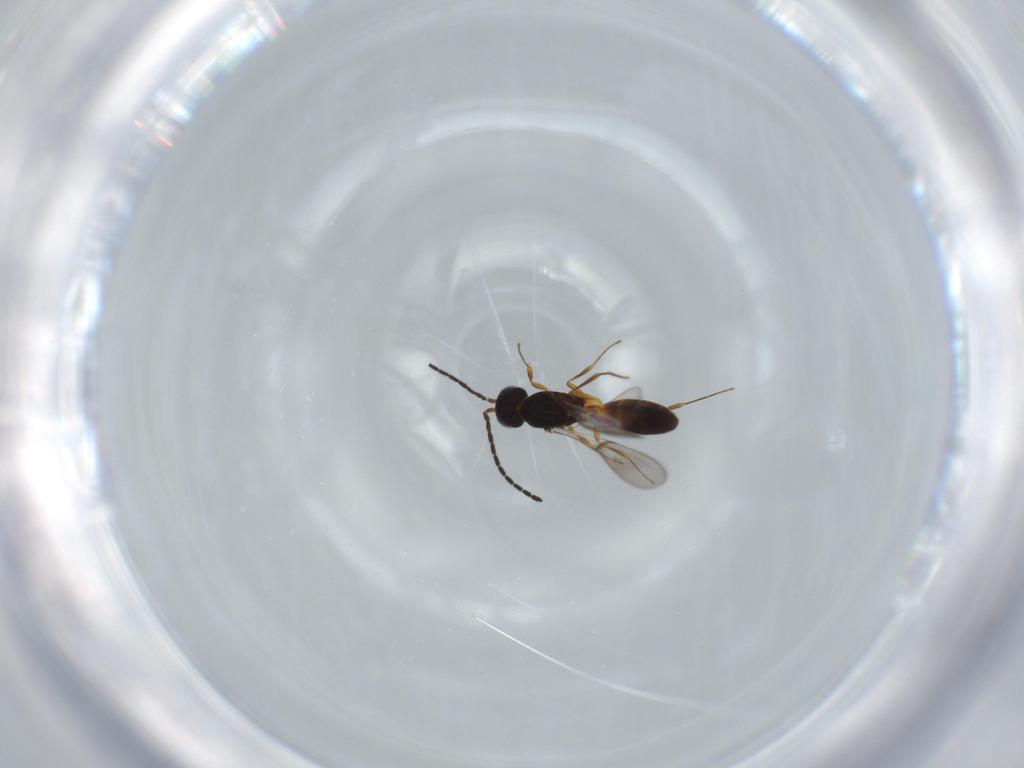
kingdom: Animalia
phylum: Arthropoda
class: Insecta
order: Hymenoptera
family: Scelionidae
